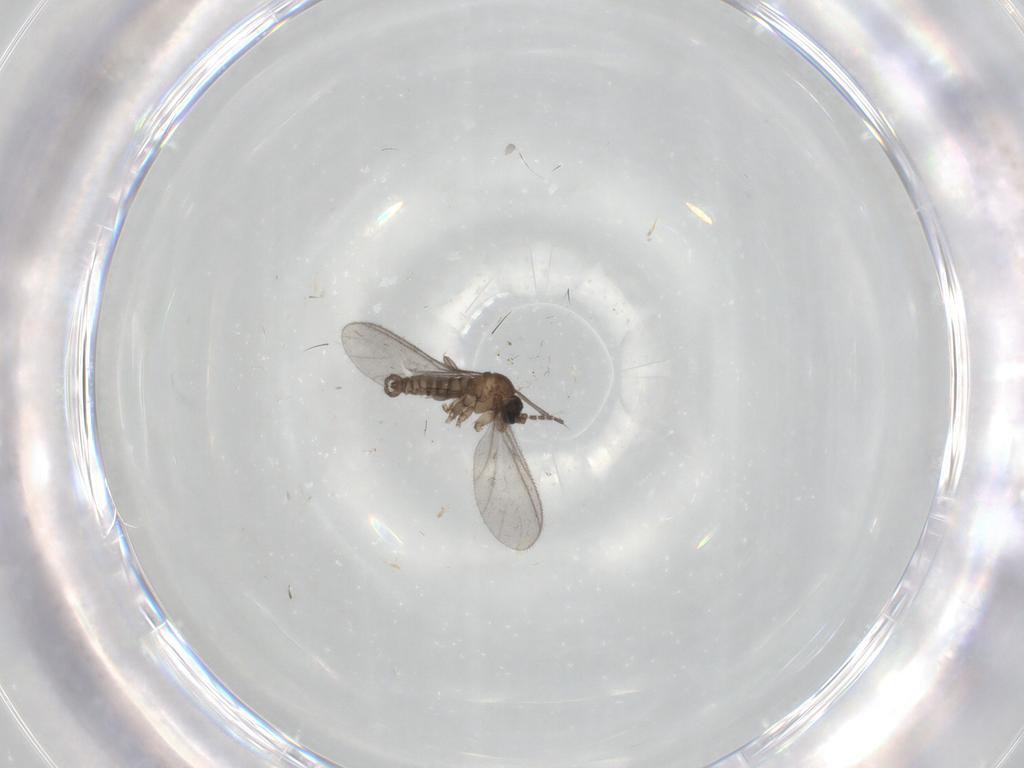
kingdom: Animalia
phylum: Arthropoda
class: Insecta
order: Diptera
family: Sciaridae
